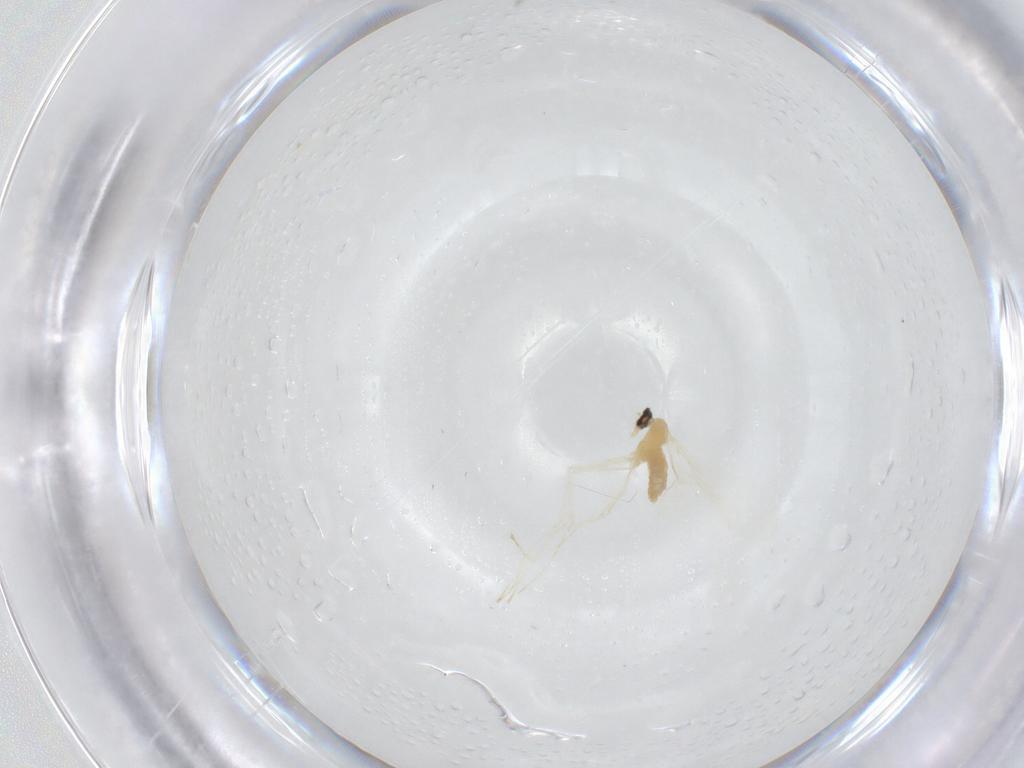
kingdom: Animalia
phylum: Arthropoda
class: Insecta
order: Diptera
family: Cecidomyiidae
